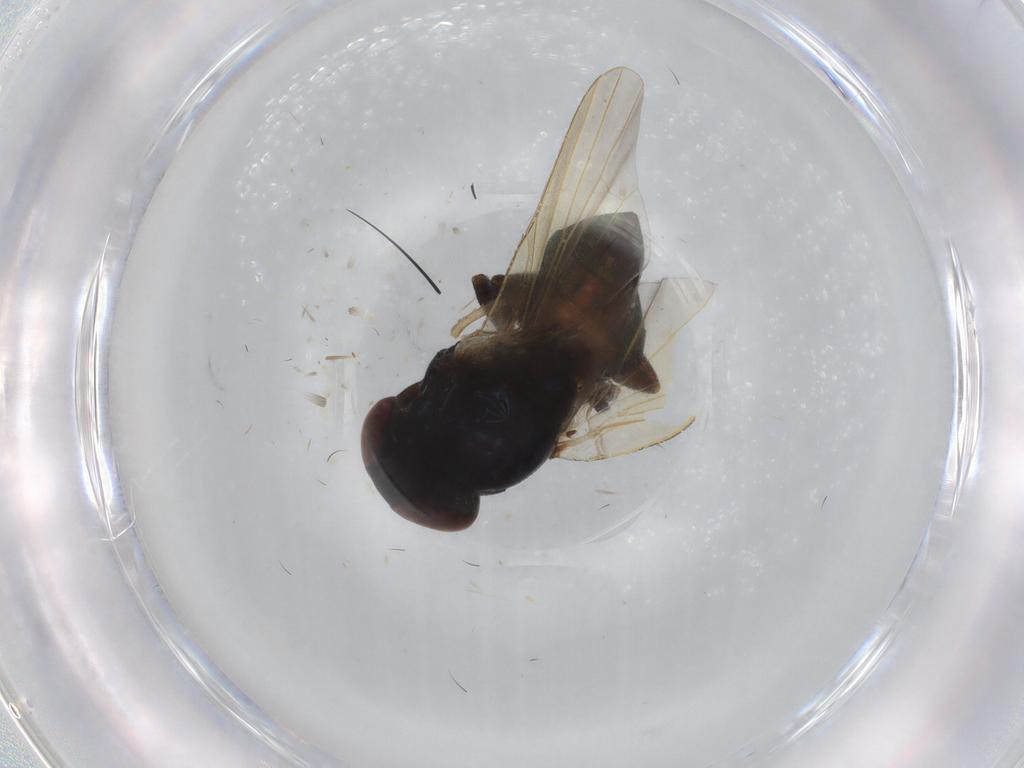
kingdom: Animalia
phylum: Arthropoda
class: Insecta
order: Diptera
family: Lonchaeidae
